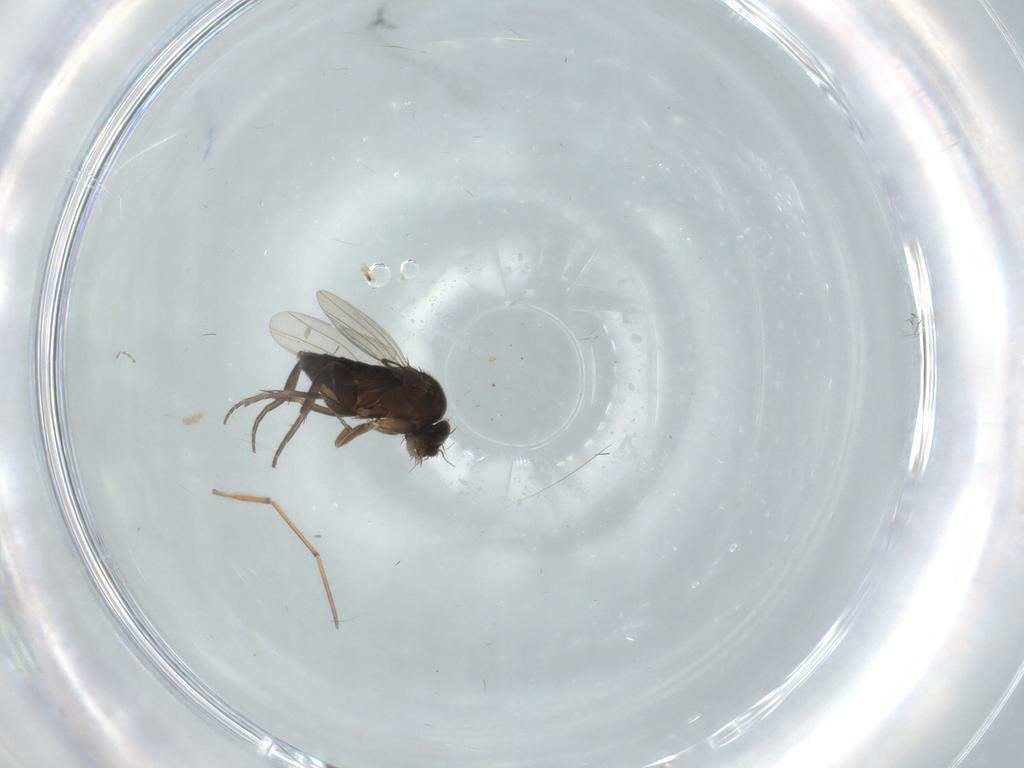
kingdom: Animalia
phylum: Arthropoda
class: Insecta
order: Diptera
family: Phoridae
